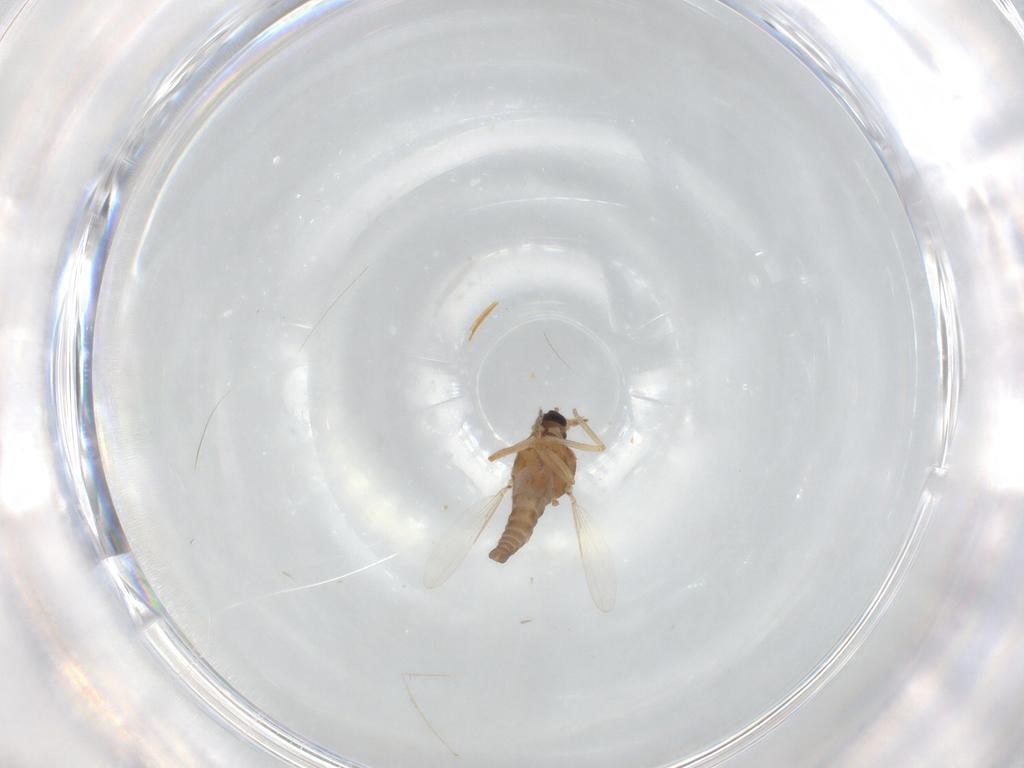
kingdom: Animalia
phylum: Arthropoda
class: Insecta
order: Diptera
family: Ceratopogonidae
